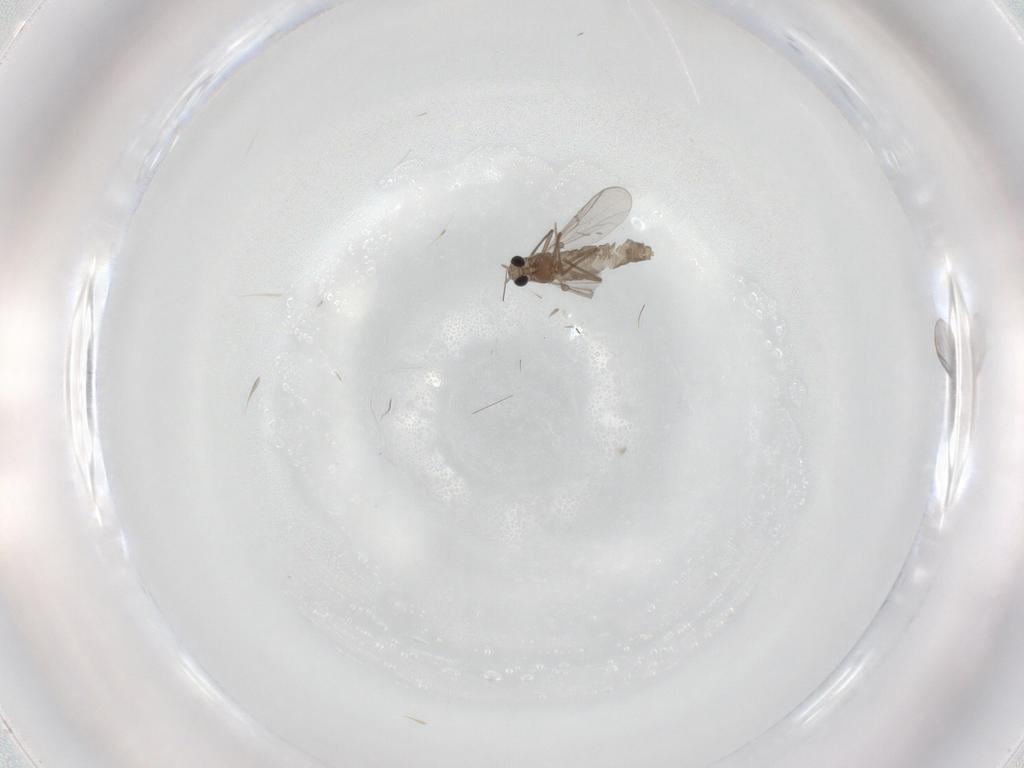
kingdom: Animalia
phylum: Arthropoda
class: Insecta
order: Diptera
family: Chironomidae
